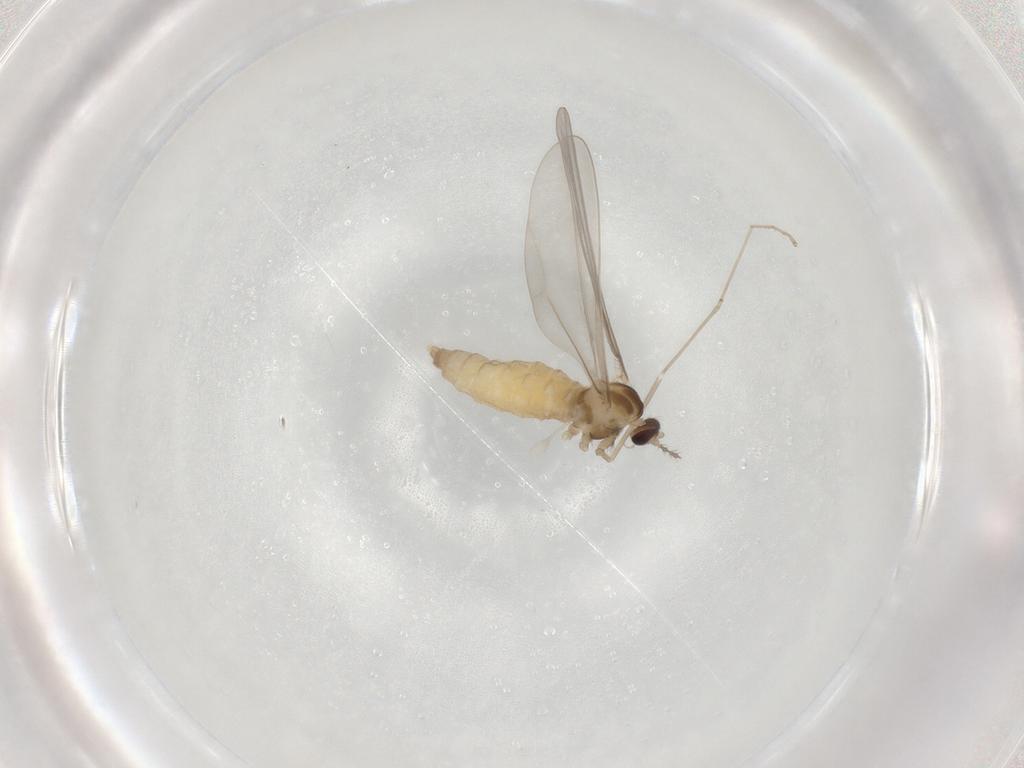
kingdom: Animalia
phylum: Arthropoda
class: Insecta
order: Diptera
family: Cecidomyiidae
